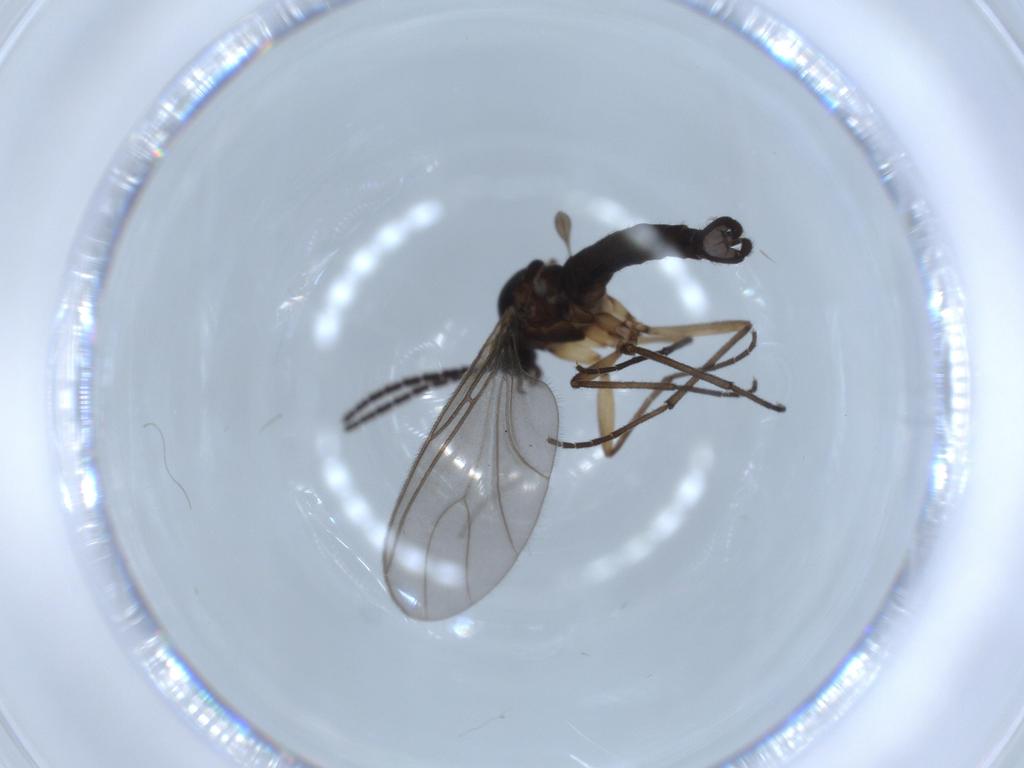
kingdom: Animalia
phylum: Arthropoda
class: Insecta
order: Diptera
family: Sciaridae
